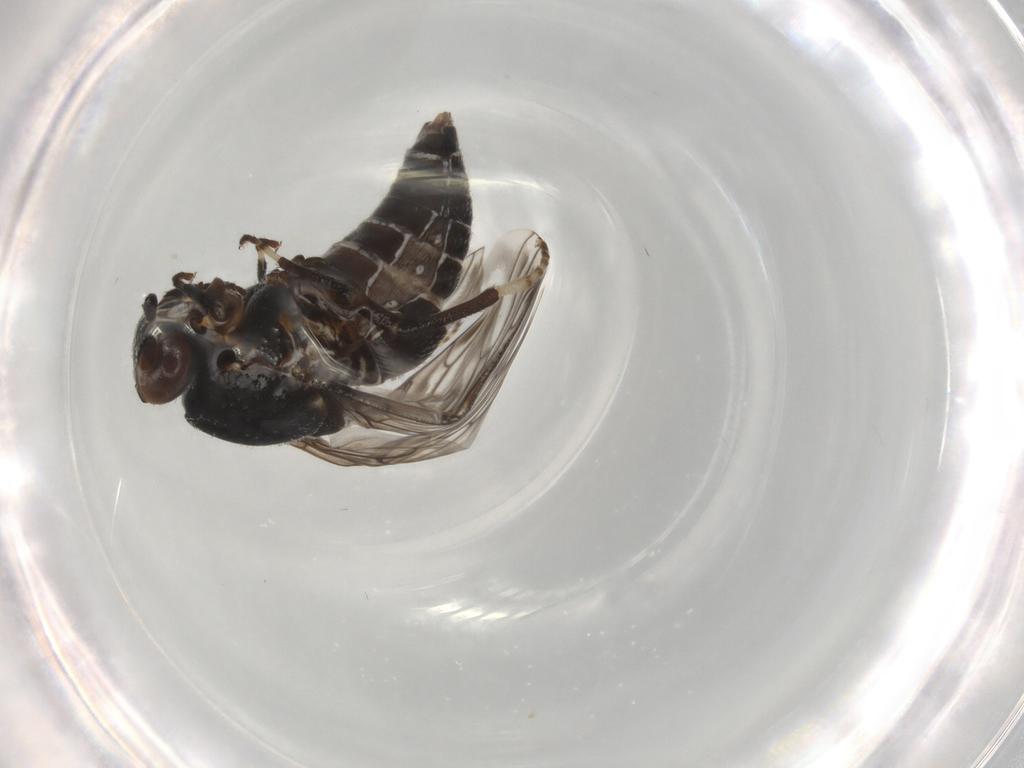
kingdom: Animalia
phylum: Arthropoda
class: Insecta
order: Diptera
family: Scenopinidae
